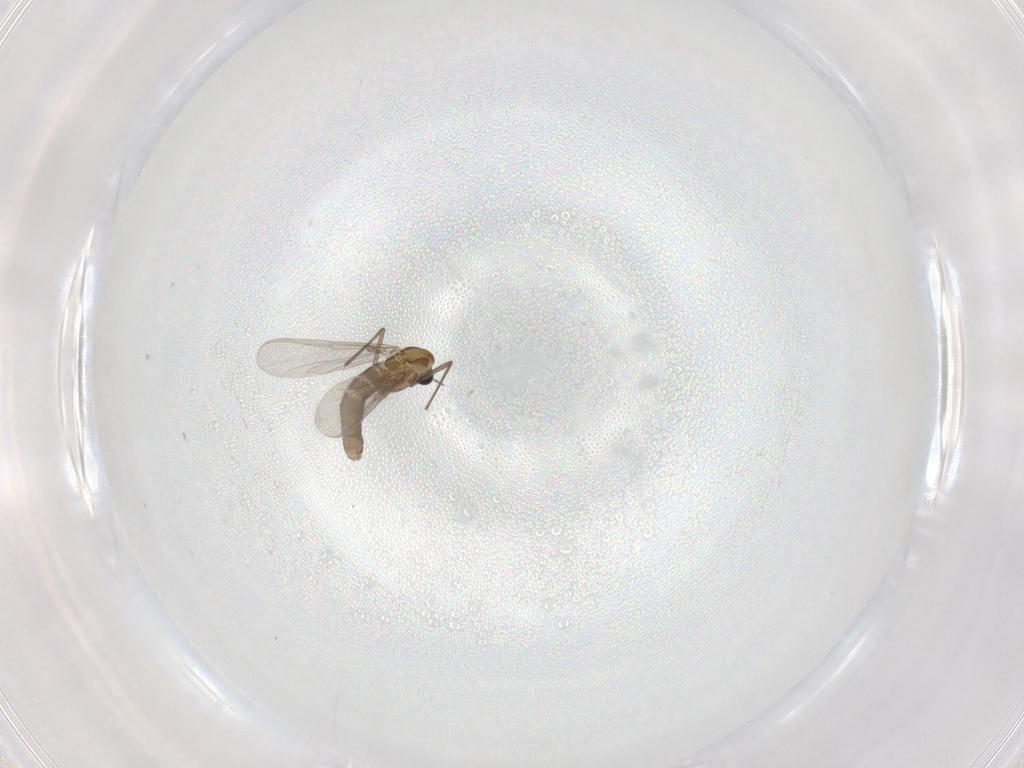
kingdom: Animalia
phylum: Arthropoda
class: Insecta
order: Diptera
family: Chironomidae
